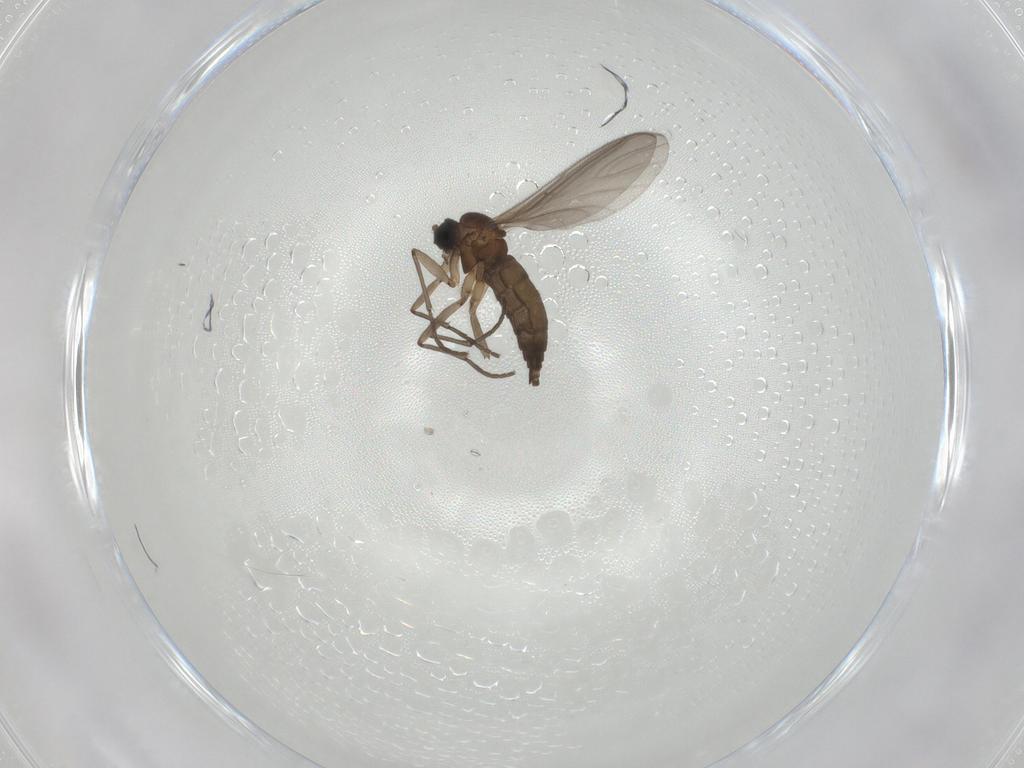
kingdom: Animalia
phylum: Arthropoda
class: Insecta
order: Diptera
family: Sciaridae
